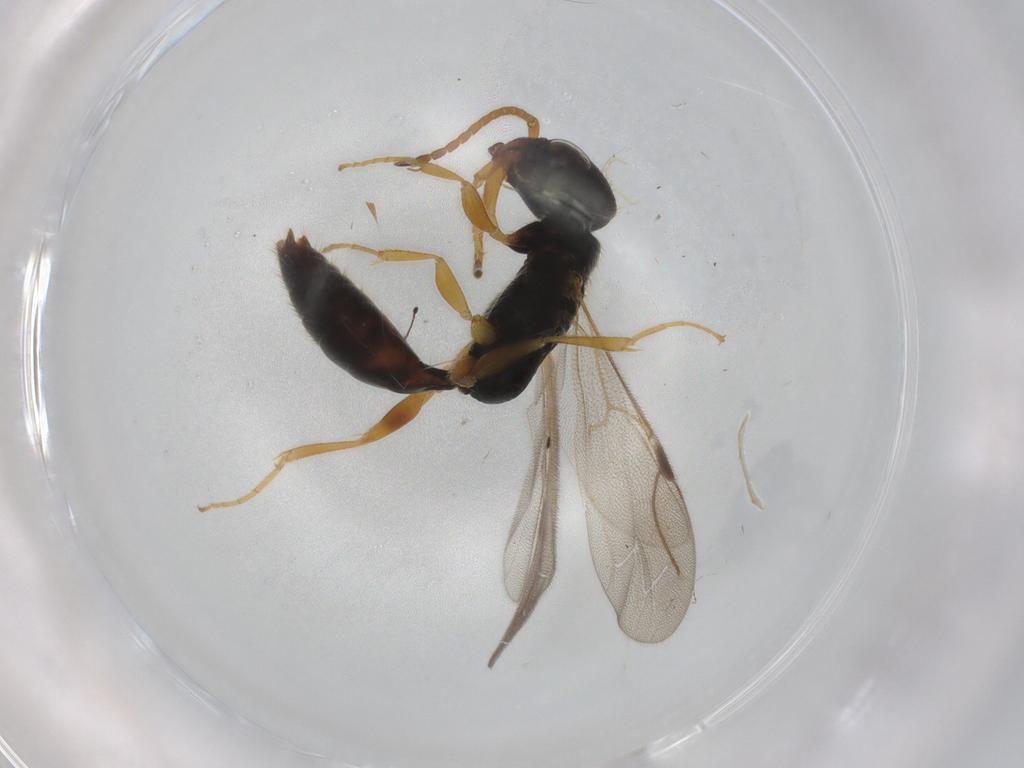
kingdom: Animalia
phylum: Arthropoda
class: Insecta
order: Hymenoptera
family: Bethylidae
